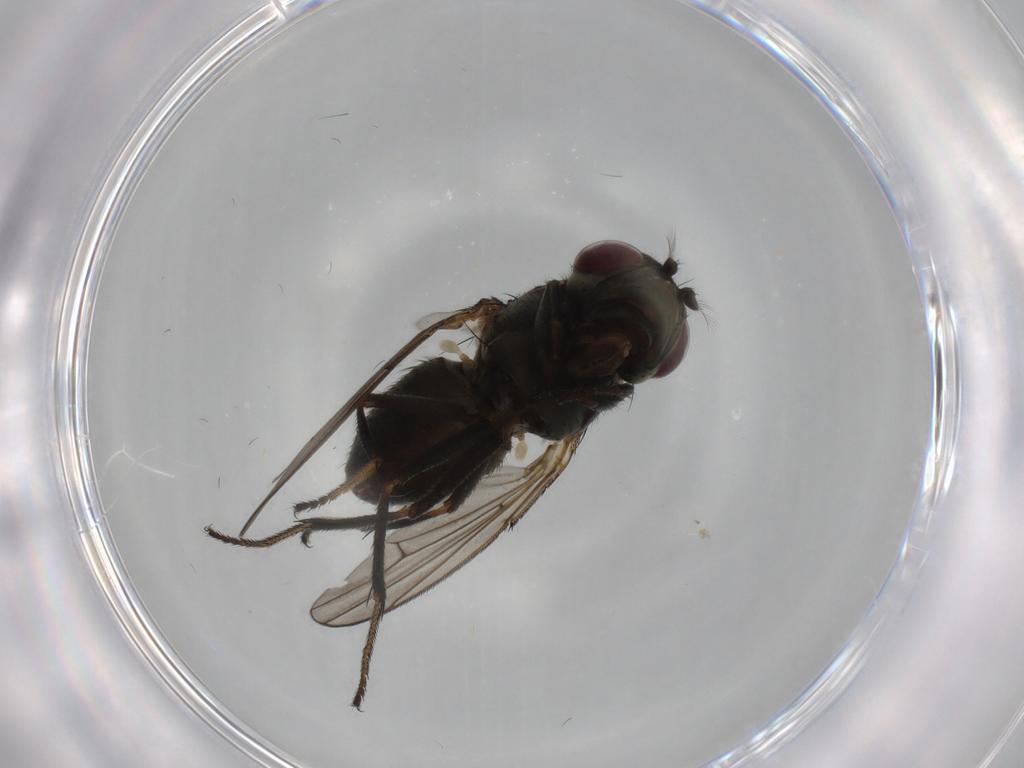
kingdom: Animalia
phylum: Arthropoda
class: Insecta
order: Diptera
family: Ephydridae
